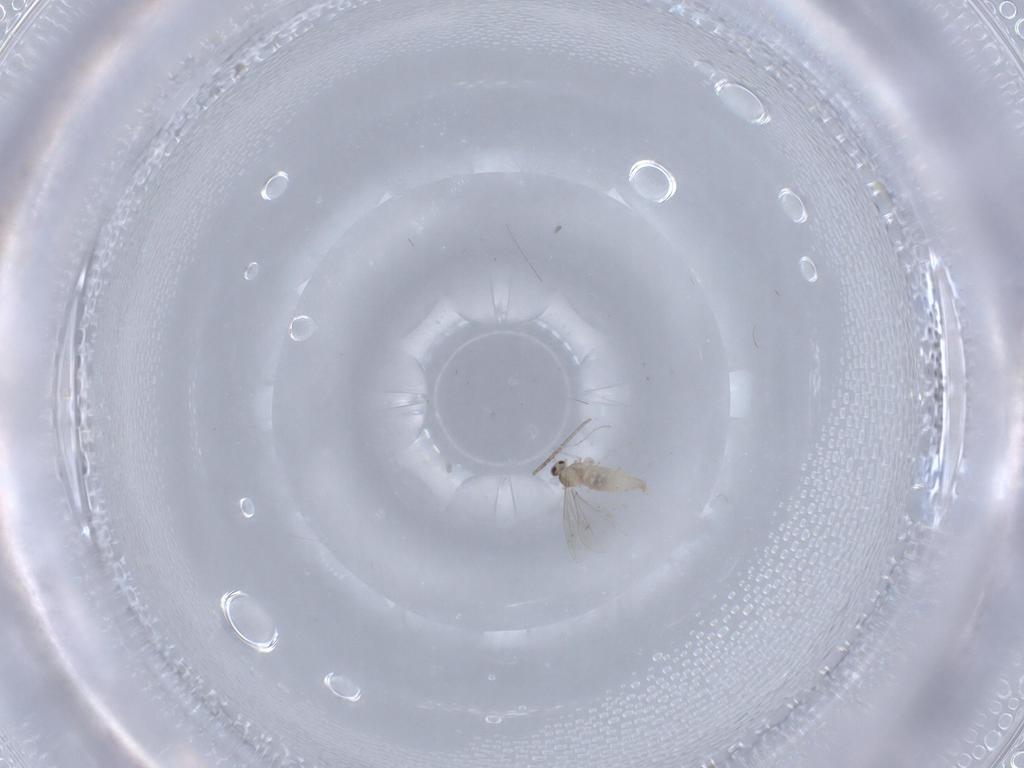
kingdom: Animalia
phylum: Arthropoda
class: Insecta
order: Diptera
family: Cecidomyiidae
